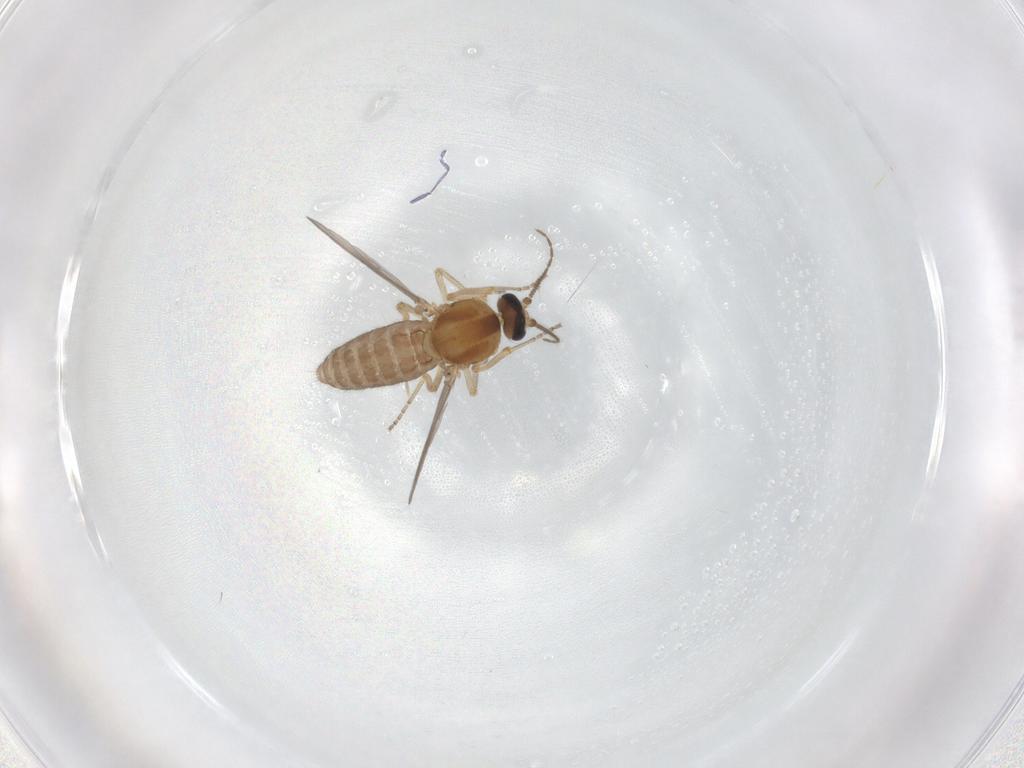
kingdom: Animalia
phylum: Arthropoda
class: Insecta
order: Diptera
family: Ceratopogonidae
